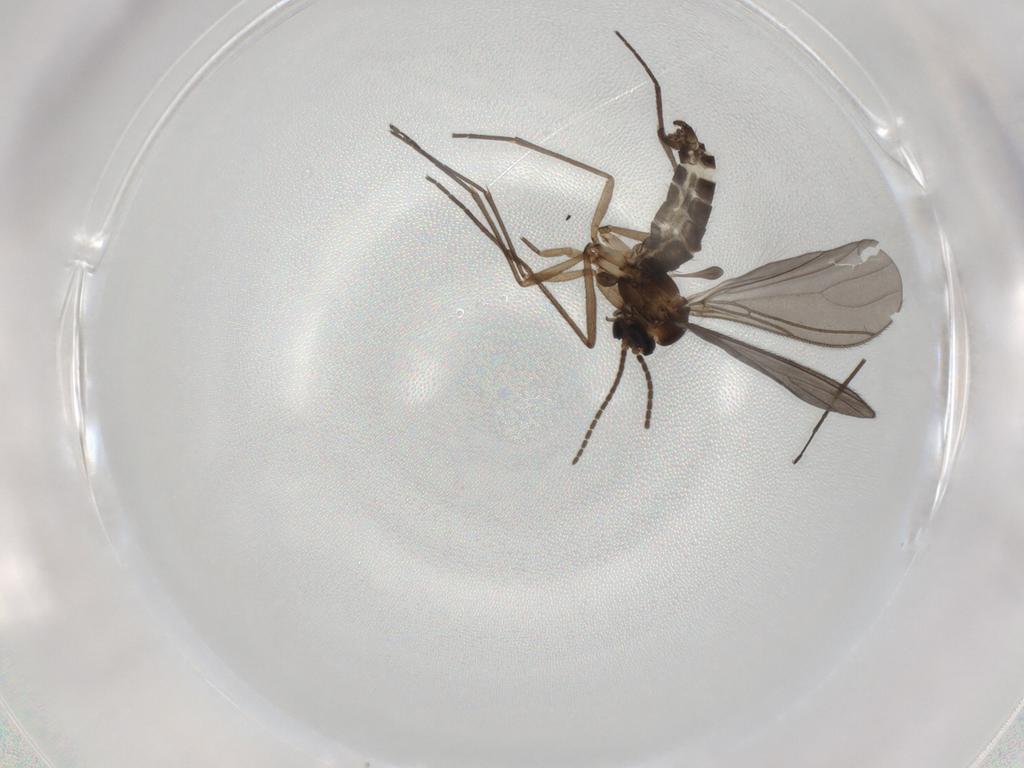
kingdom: Animalia
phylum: Arthropoda
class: Insecta
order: Diptera
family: Sciaridae
